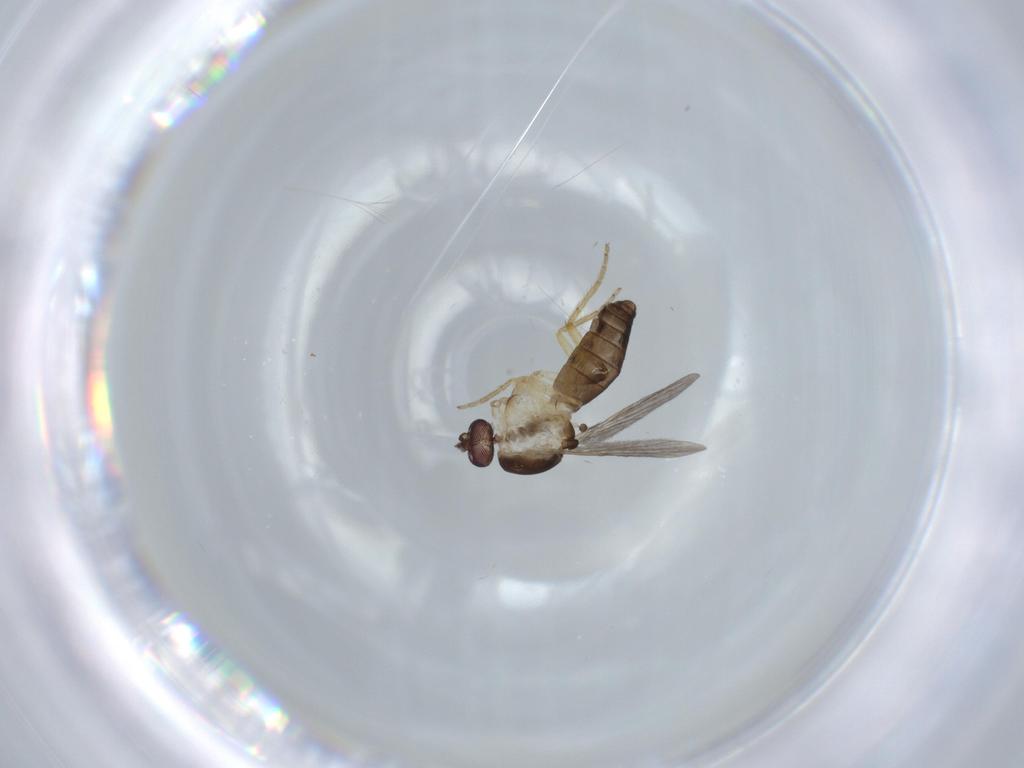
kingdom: Animalia
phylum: Arthropoda
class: Insecta
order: Diptera
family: Ceratopogonidae
